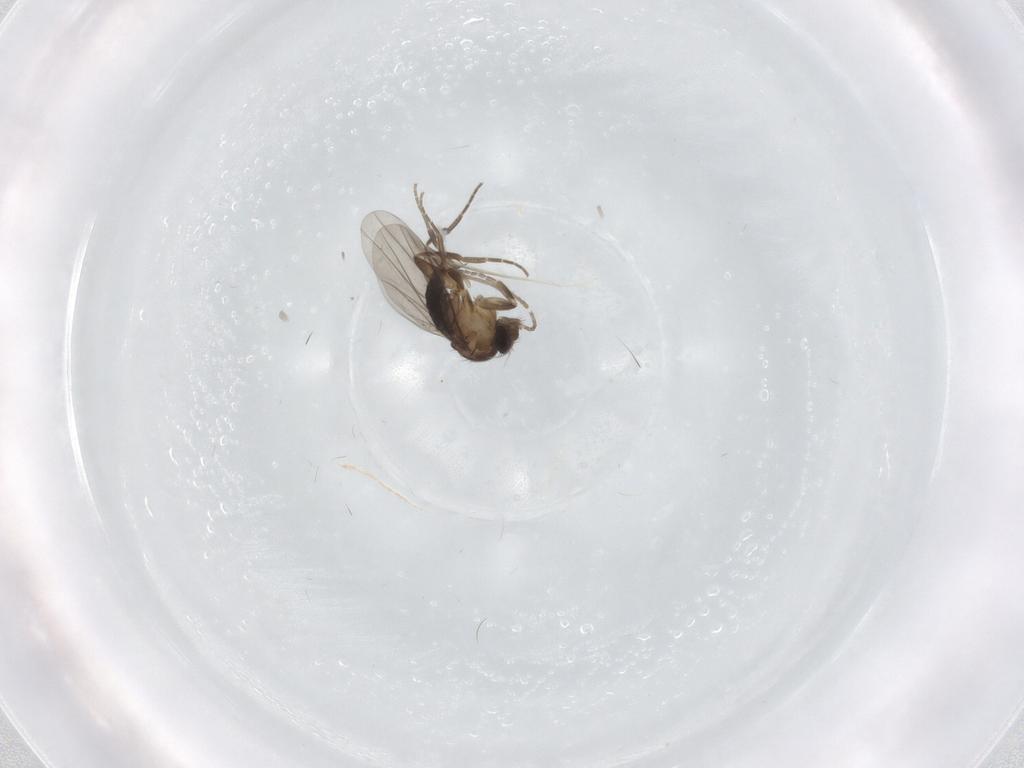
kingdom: Animalia
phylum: Arthropoda
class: Insecta
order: Diptera
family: Psychodidae
